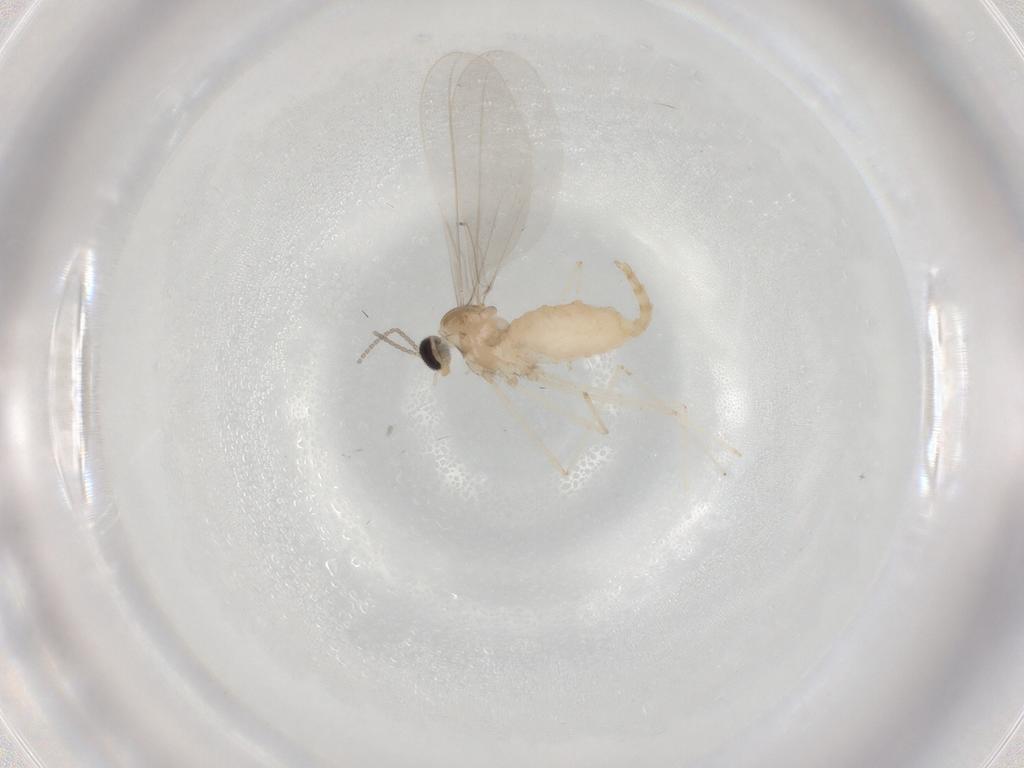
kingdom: Animalia
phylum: Arthropoda
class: Insecta
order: Diptera
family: Cecidomyiidae
